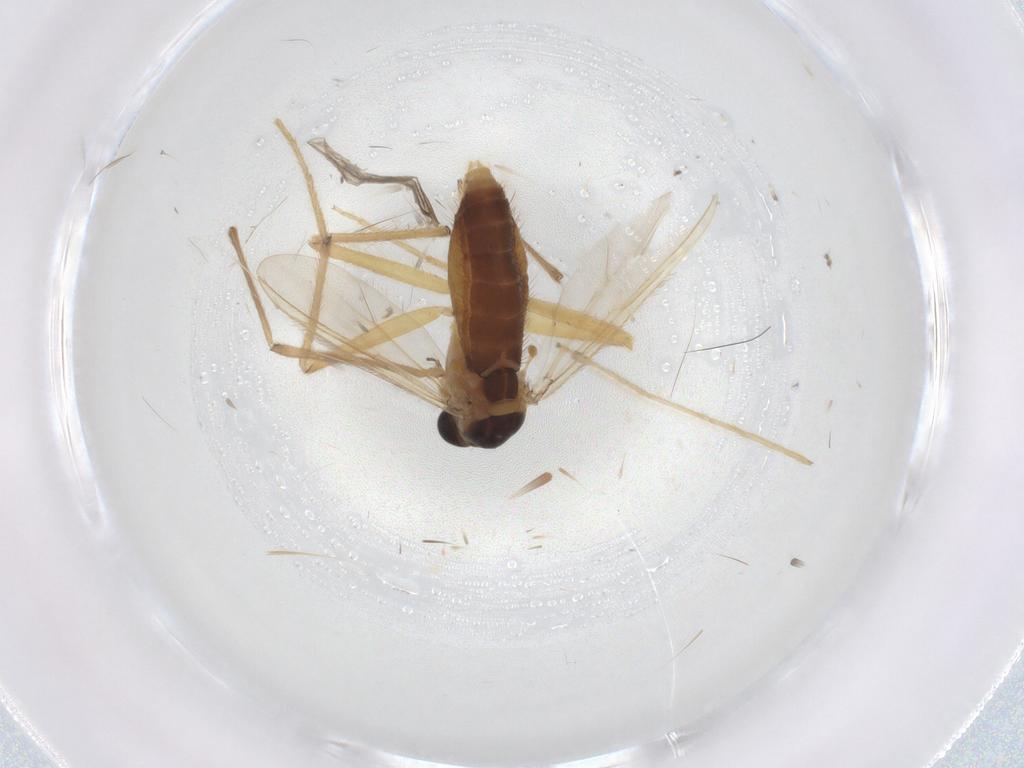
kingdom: Animalia
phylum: Arthropoda
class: Insecta
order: Diptera
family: Chironomidae
